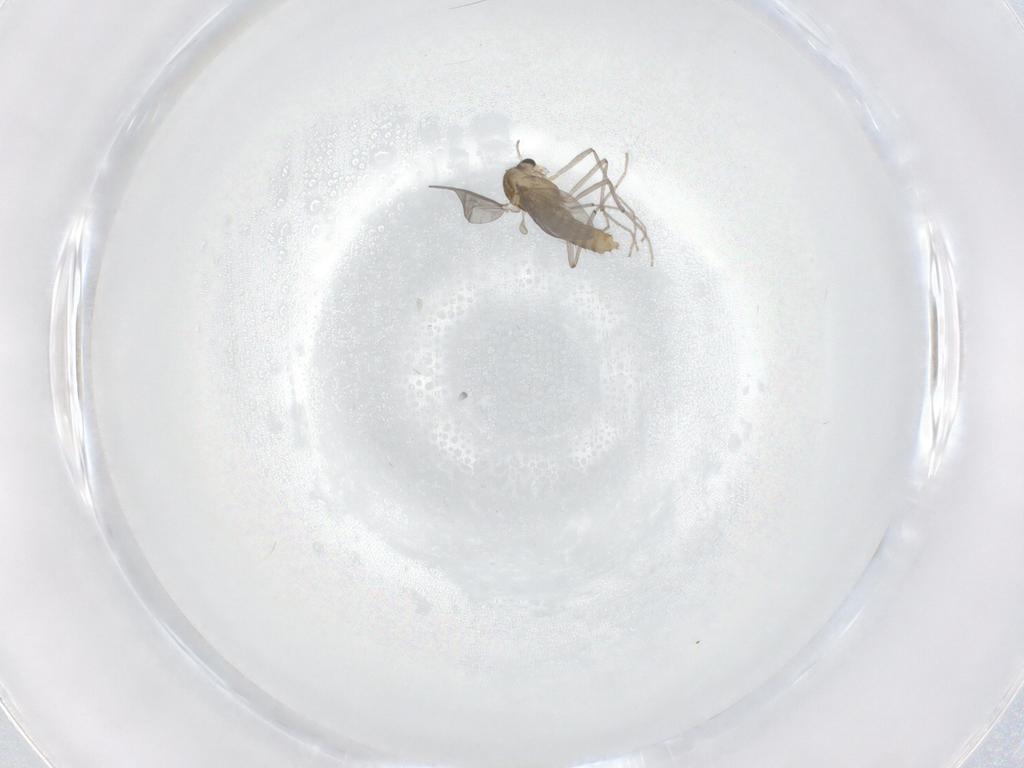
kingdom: Animalia
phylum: Arthropoda
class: Insecta
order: Diptera
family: Chironomidae
